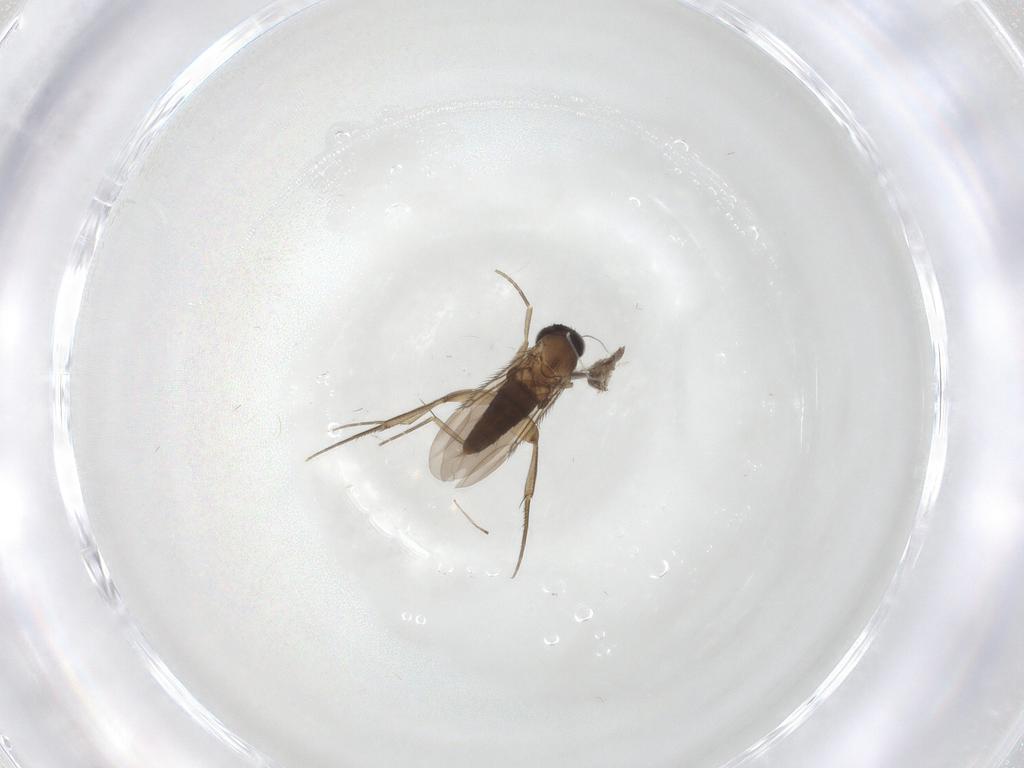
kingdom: Animalia
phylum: Arthropoda
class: Insecta
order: Diptera
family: Phoridae
